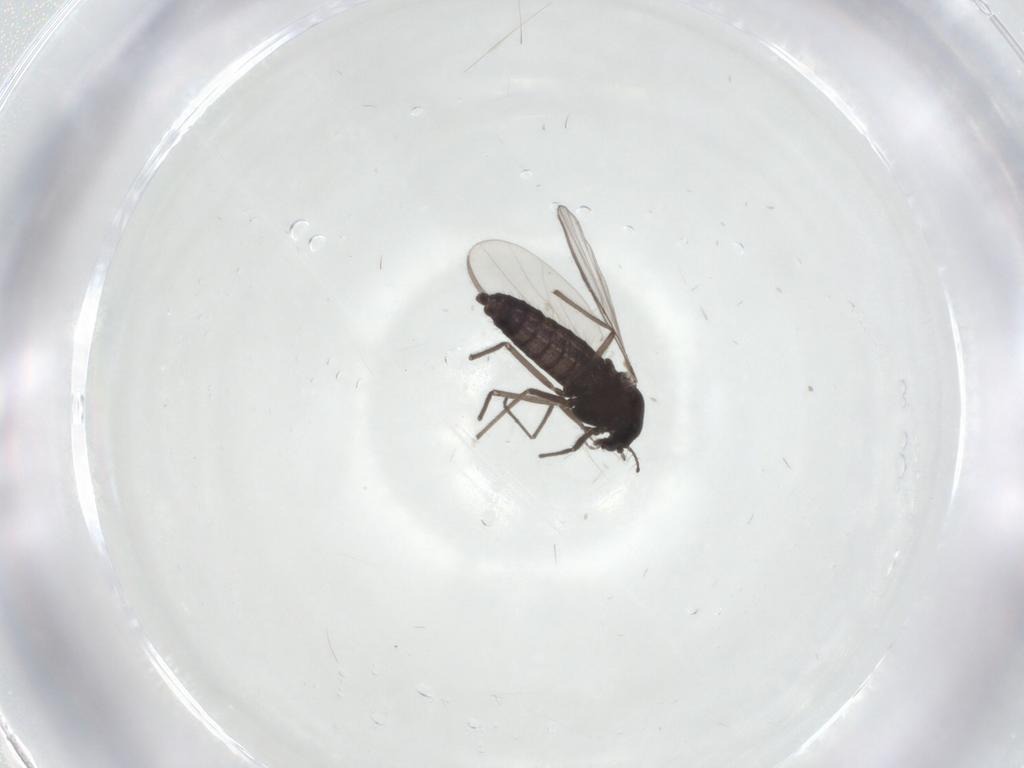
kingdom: Animalia
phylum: Arthropoda
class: Insecta
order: Diptera
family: Chironomidae
